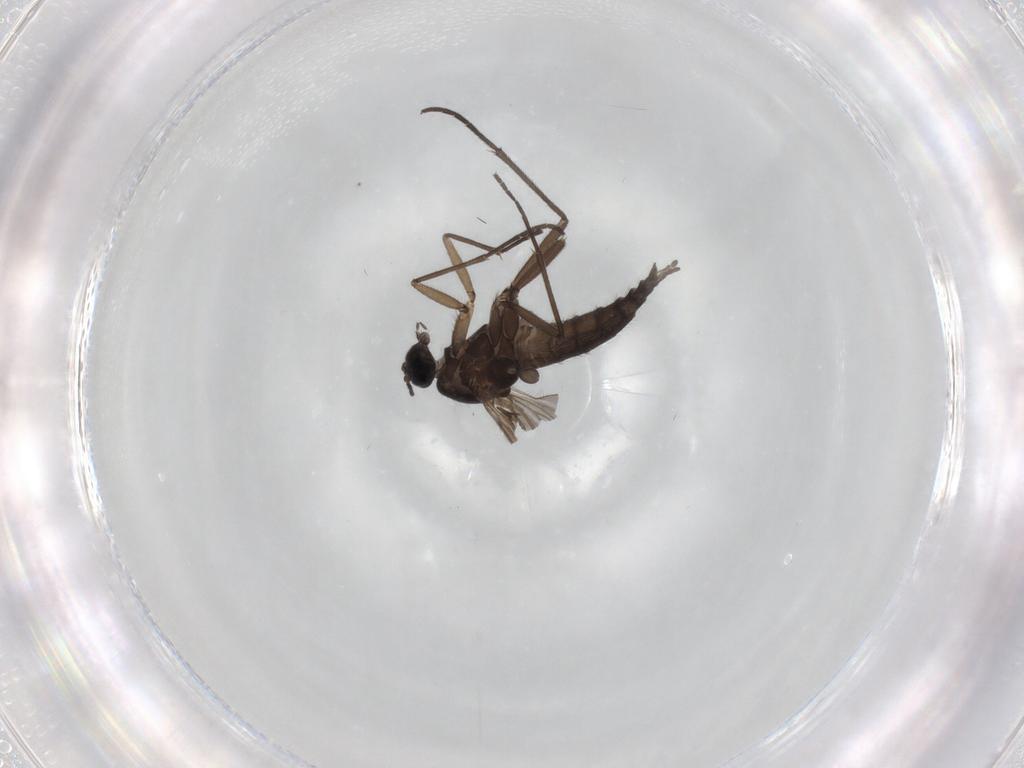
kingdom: Animalia
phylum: Arthropoda
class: Insecta
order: Diptera
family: Sciaridae
